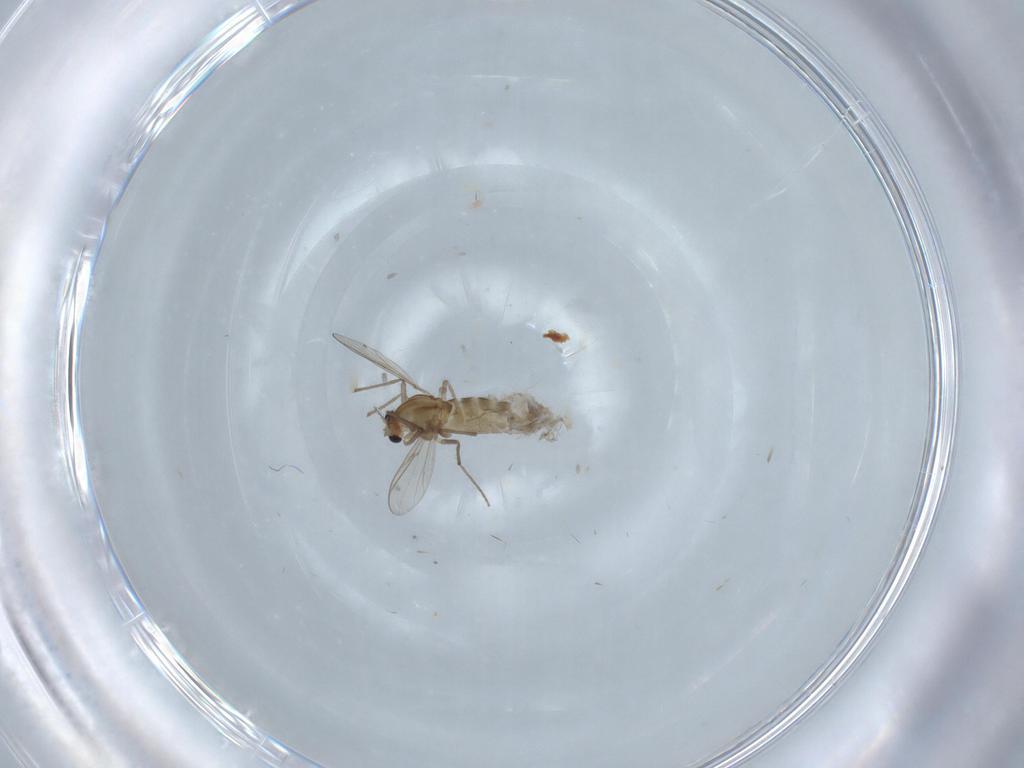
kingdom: Animalia
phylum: Arthropoda
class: Insecta
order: Diptera
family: Chironomidae
